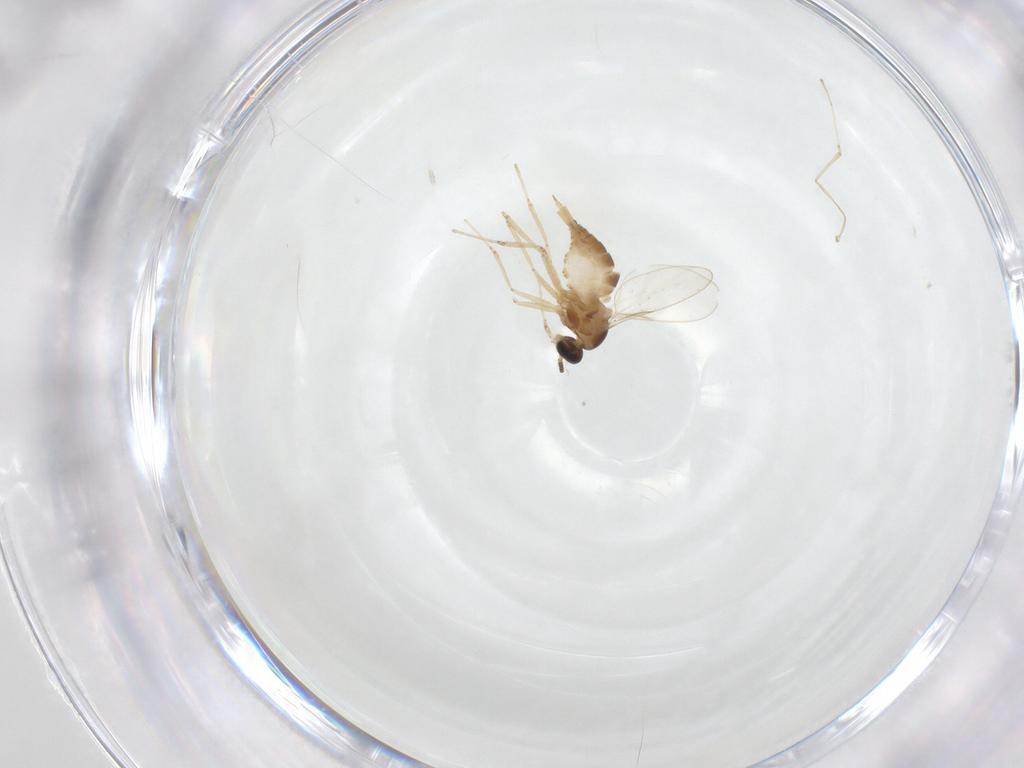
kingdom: Animalia
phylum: Arthropoda
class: Insecta
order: Diptera
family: Cecidomyiidae
